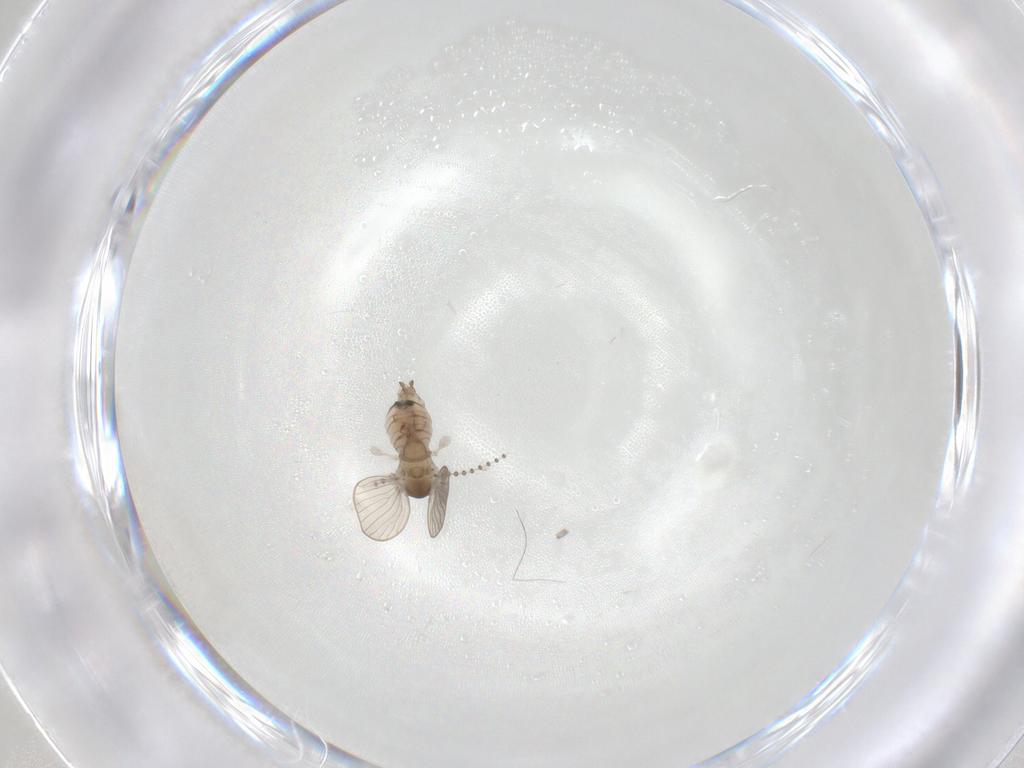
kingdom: Animalia
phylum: Arthropoda
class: Insecta
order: Diptera
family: Psychodidae
